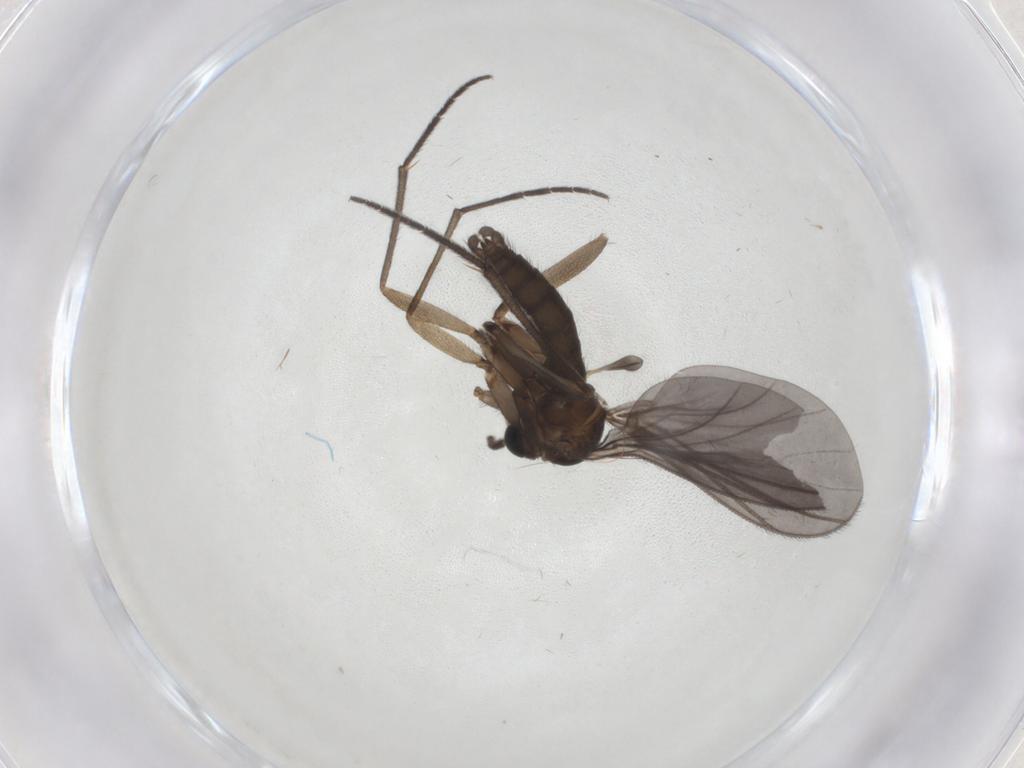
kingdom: Animalia
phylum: Arthropoda
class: Insecta
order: Diptera
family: Sciaridae
